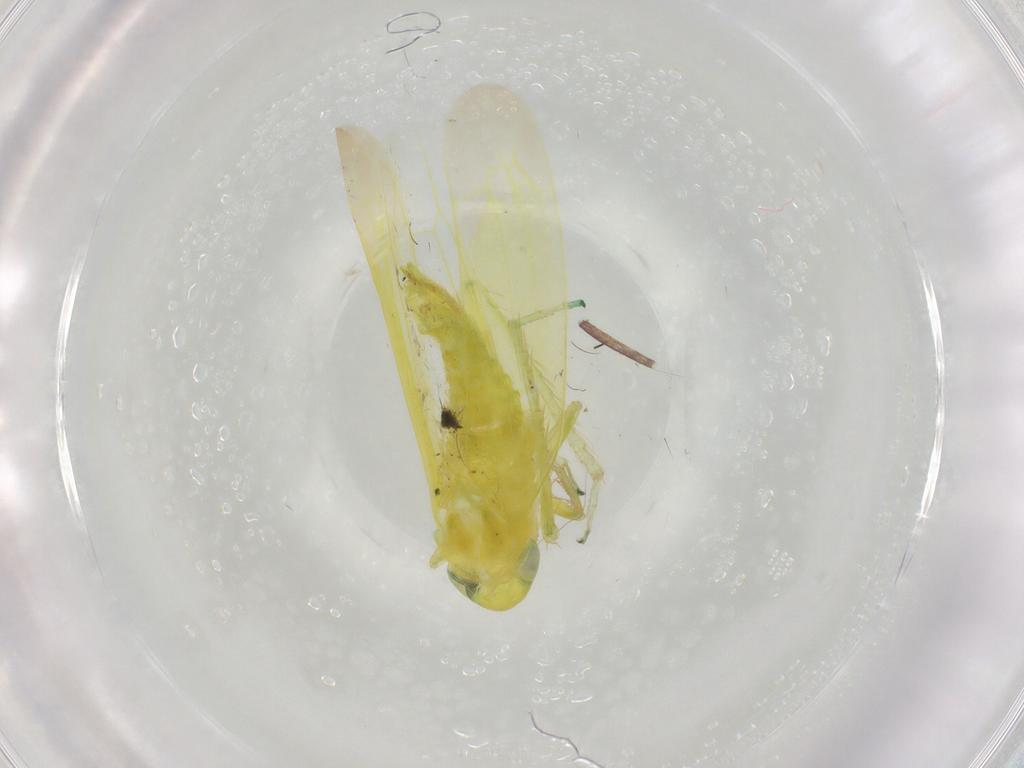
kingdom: Animalia
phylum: Arthropoda
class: Insecta
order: Hemiptera
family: Cicadellidae
